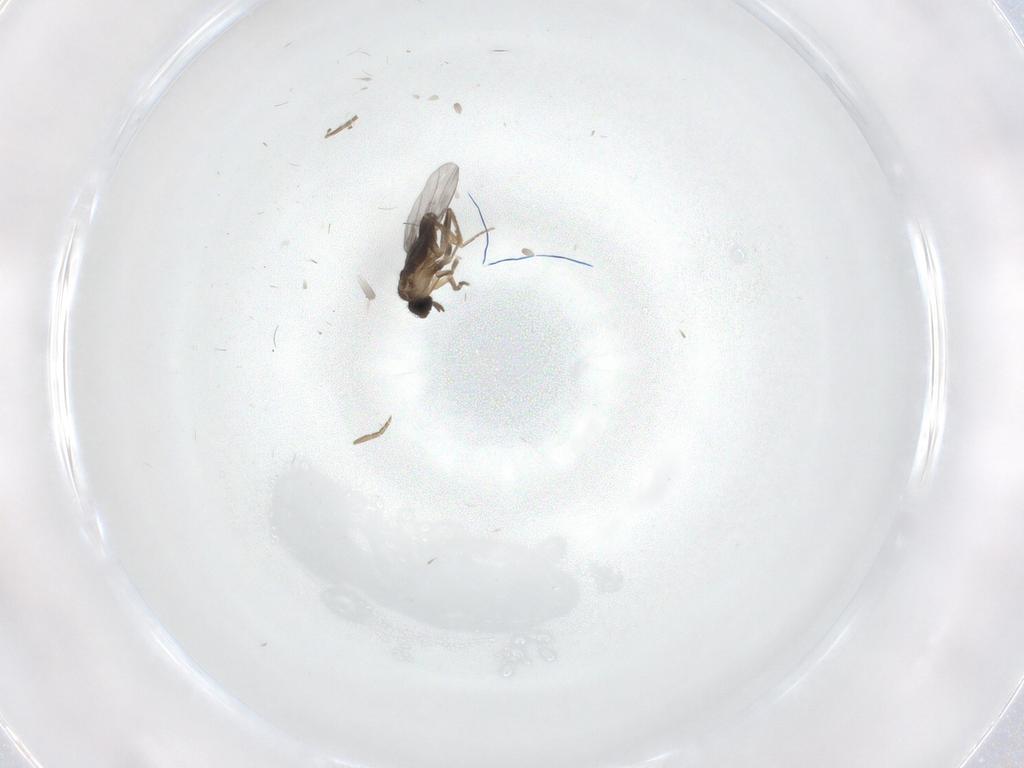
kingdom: Animalia
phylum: Arthropoda
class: Insecta
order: Diptera
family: Chironomidae
